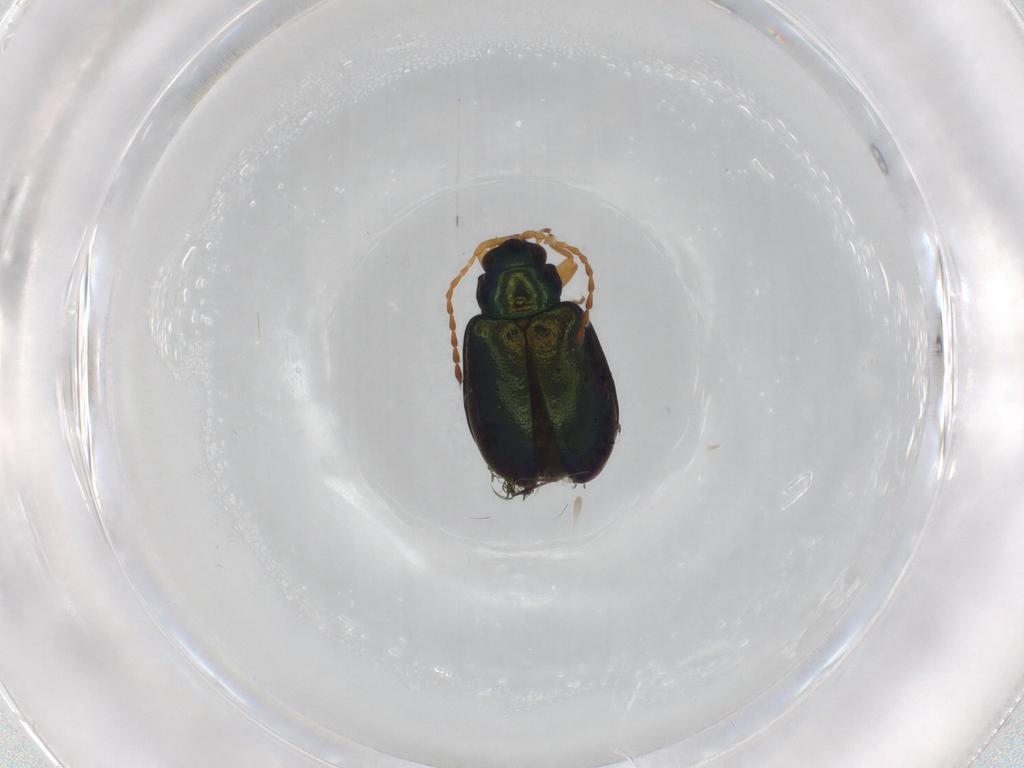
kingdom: Animalia
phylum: Arthropoda
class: Insecta
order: Coleoptera
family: Chrysomelidae
